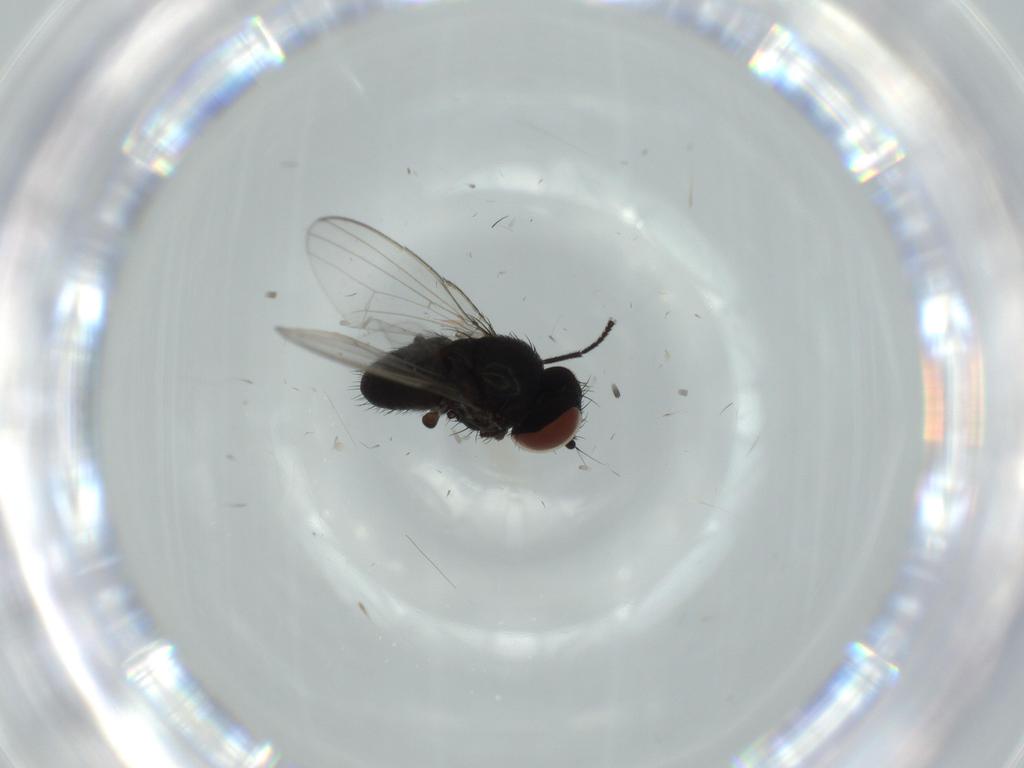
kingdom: Animalia
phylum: Arthropoda
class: Insecta
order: Diptera
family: Milichiidae
